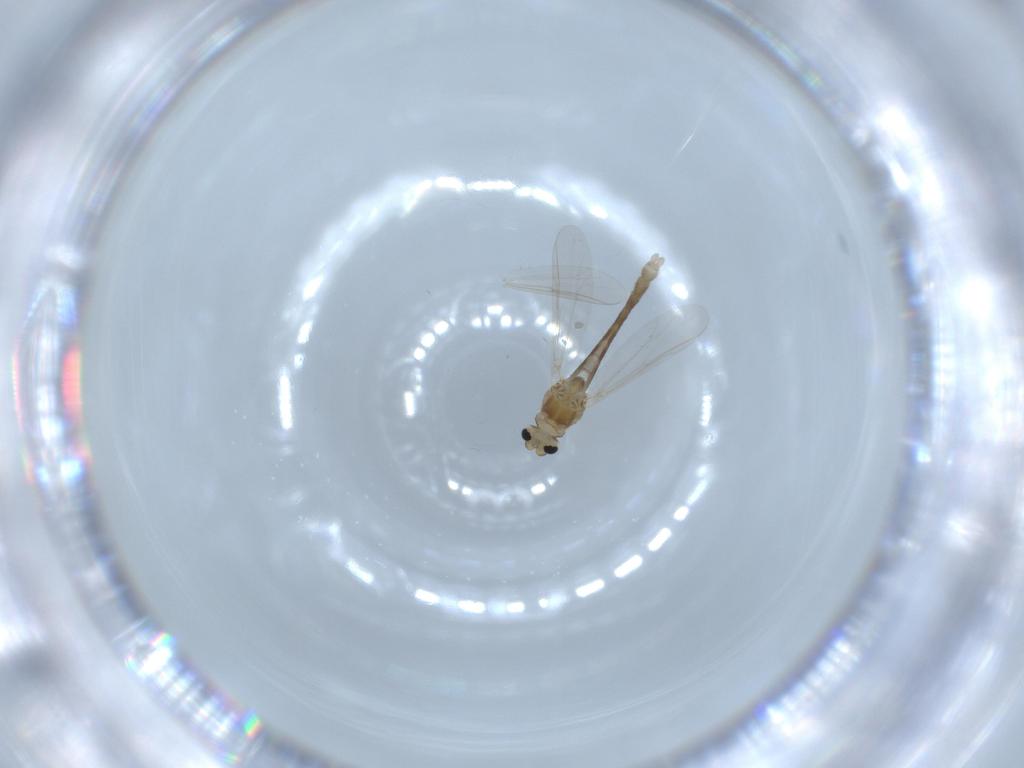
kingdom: Animalia
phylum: Arthropoda
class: Insecta
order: Diptera
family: Chironomidae
